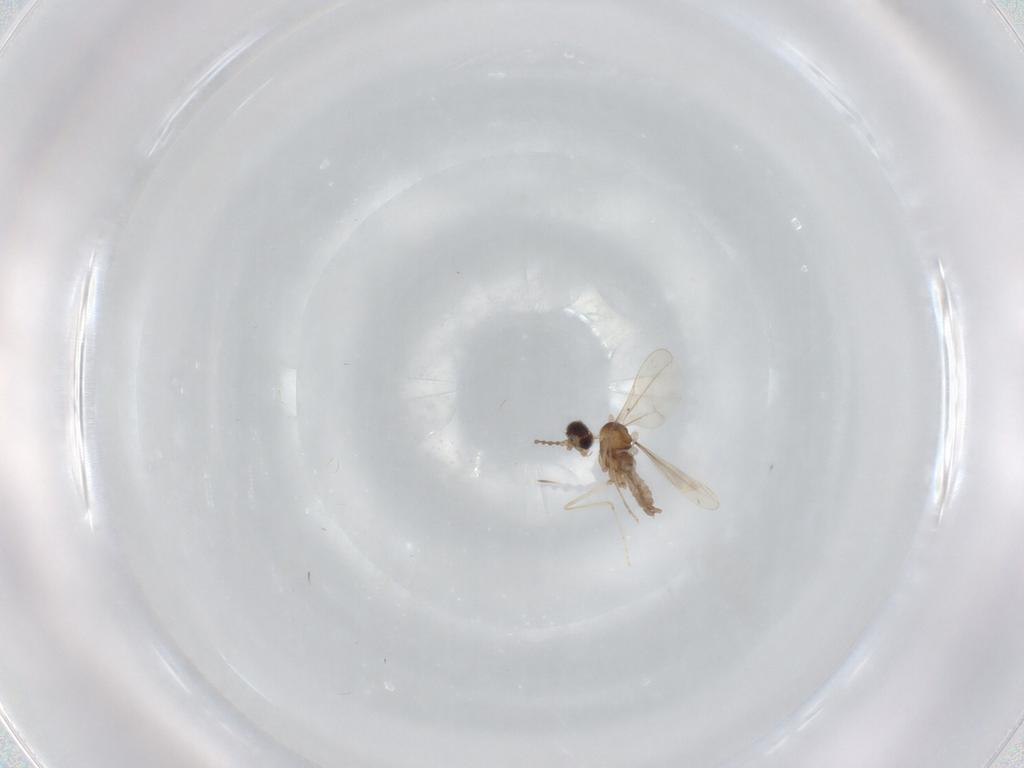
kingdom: Animalia
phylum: Arthropoda
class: Insecta
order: Diptera
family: Cecidomyiidae
